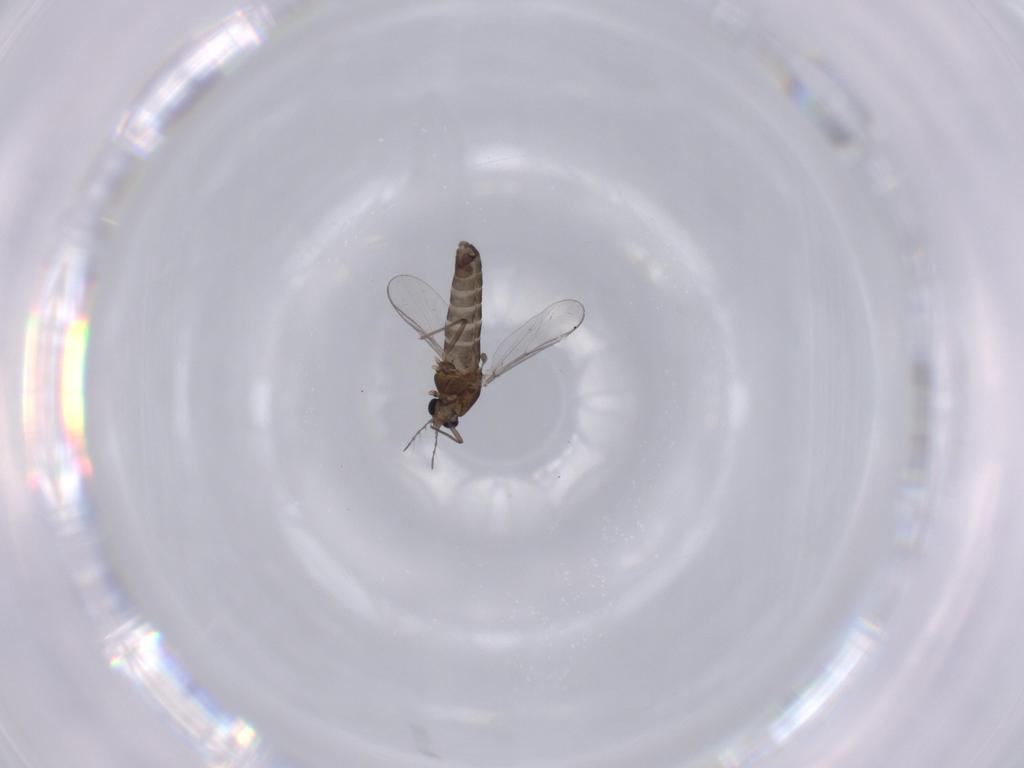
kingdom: Animalia
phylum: Arthropoda
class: Insecta
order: Diptera
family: Chironomidae
